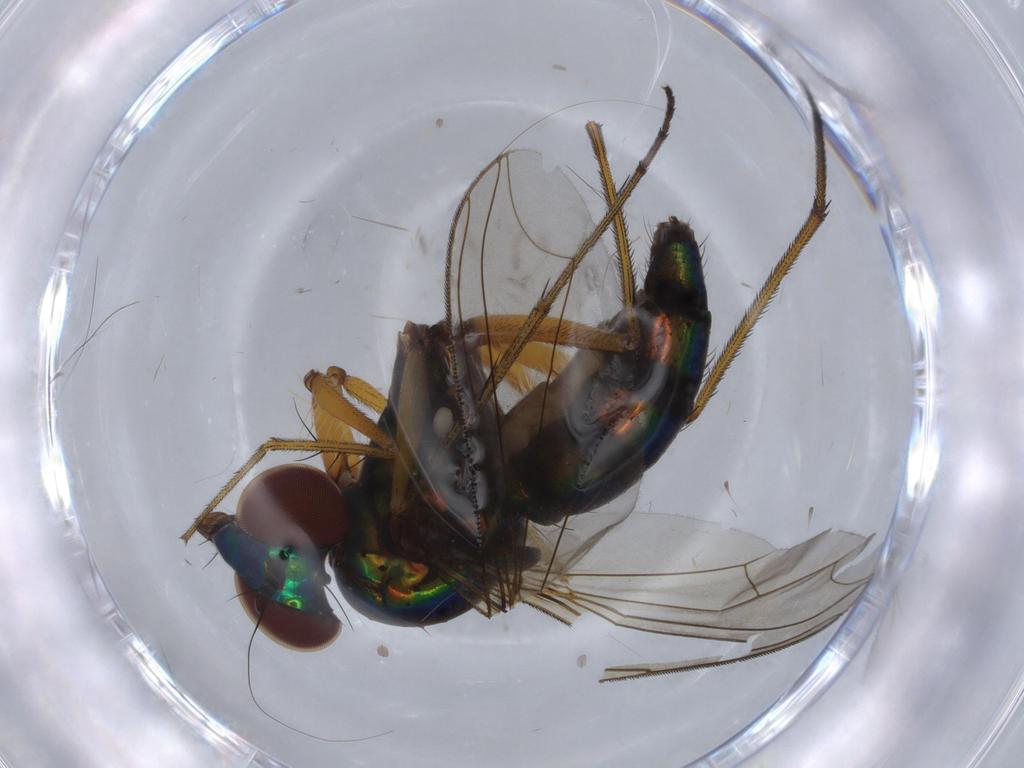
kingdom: Animalia
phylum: Arthropoda
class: Insecta
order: Diptera
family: Dolichopodidae
